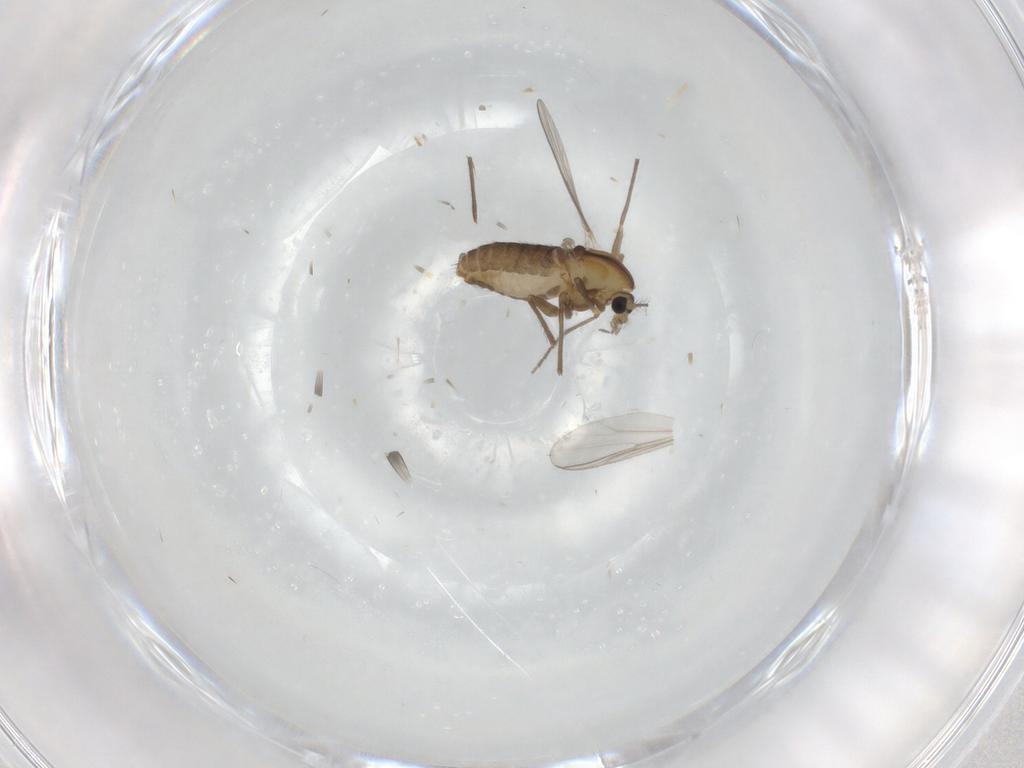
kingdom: Animalia
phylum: Arthropoda
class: Insecta
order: Diptera
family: Chironomidae
